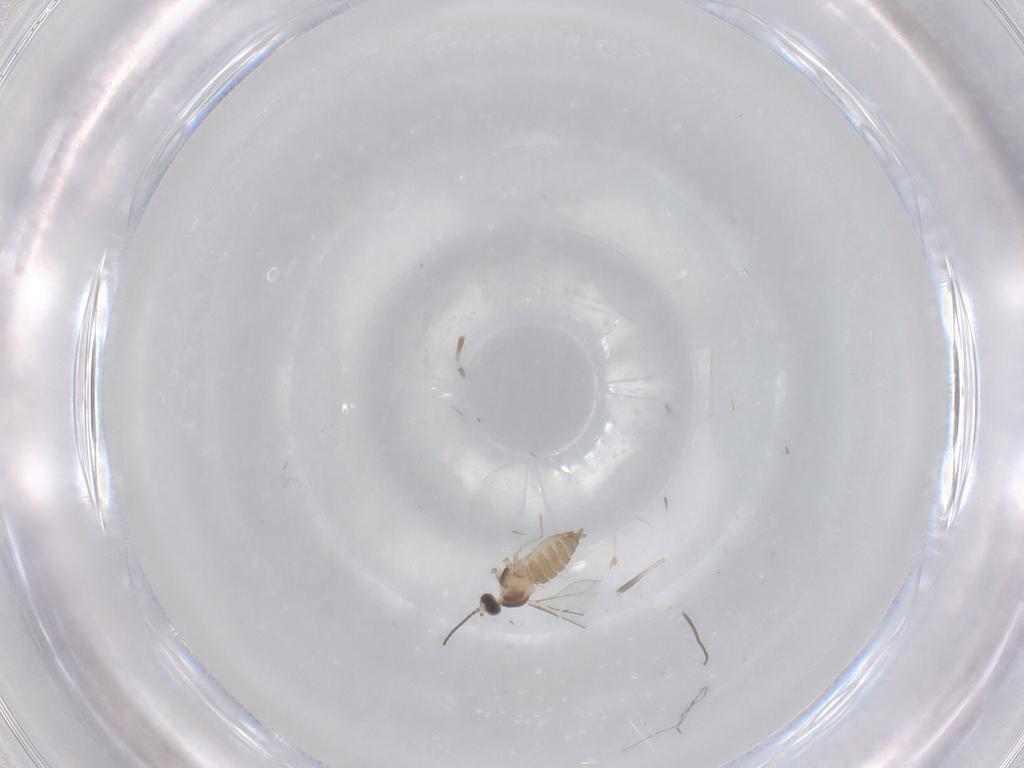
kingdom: Animalia
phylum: Arthropoda
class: Insecta
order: Diptera
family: Cecidomyiidae
